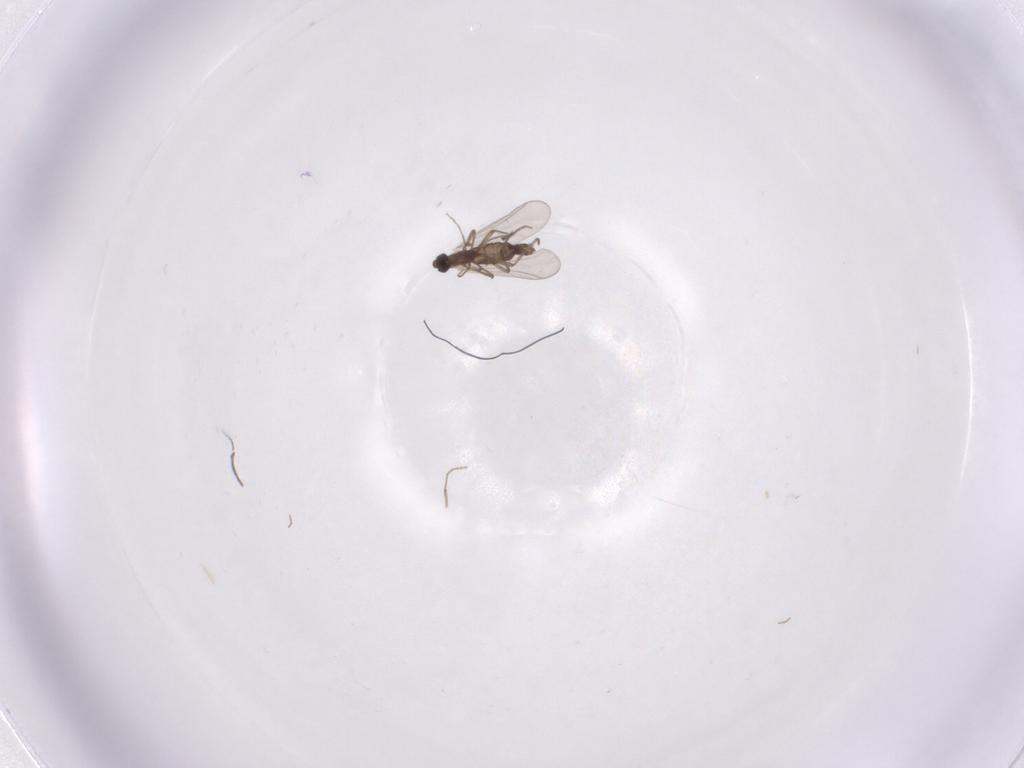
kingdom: Animalia
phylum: Arthropoda
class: Insecta
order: Diptera
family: Chironomidae
